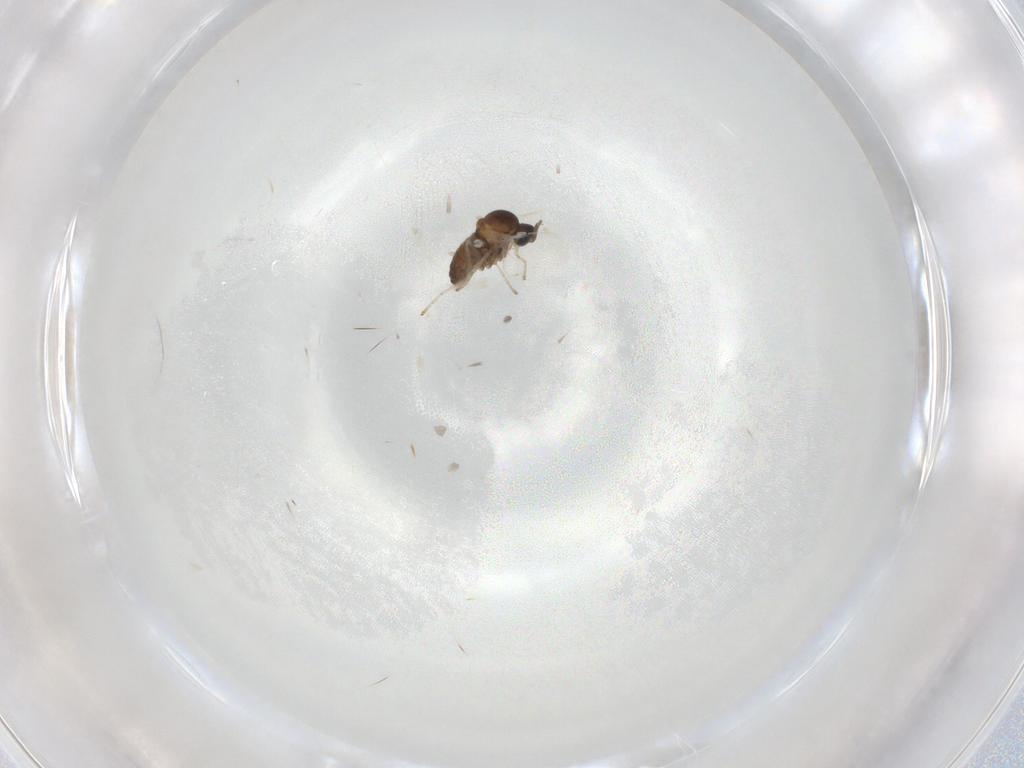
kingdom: Animalia
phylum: Arthropoda
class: Insecta
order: Diptera
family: Cecidomyiidae
